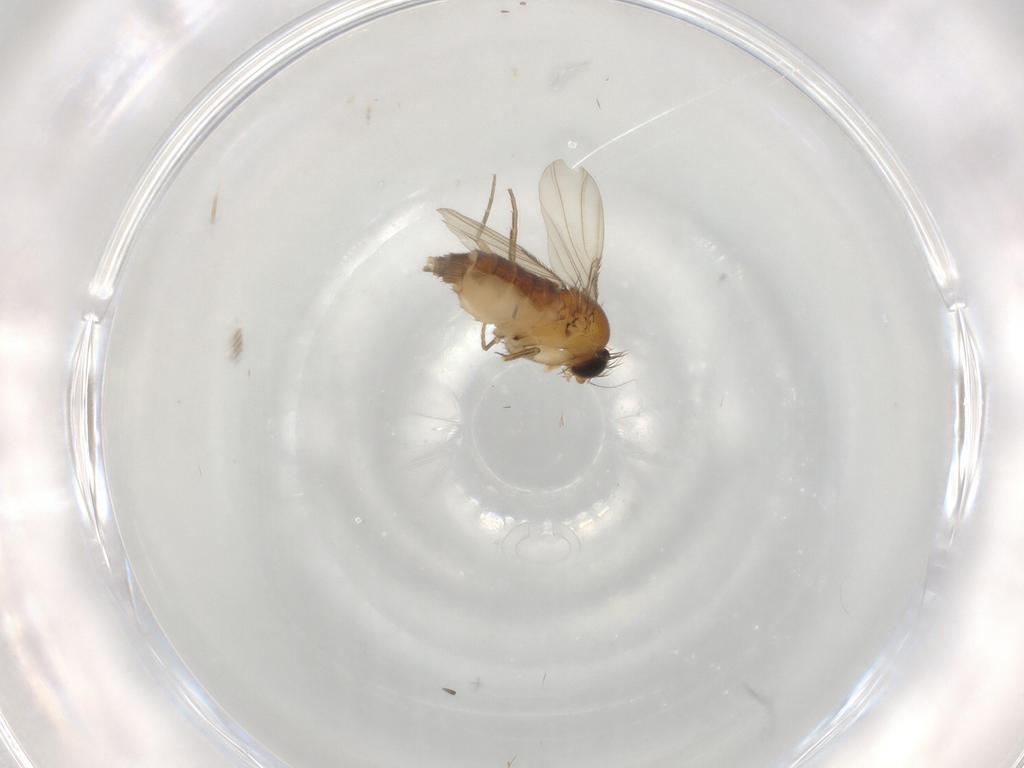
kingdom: Animalia
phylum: Arthropoda
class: Insecta
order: Diptera
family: Phoridae
